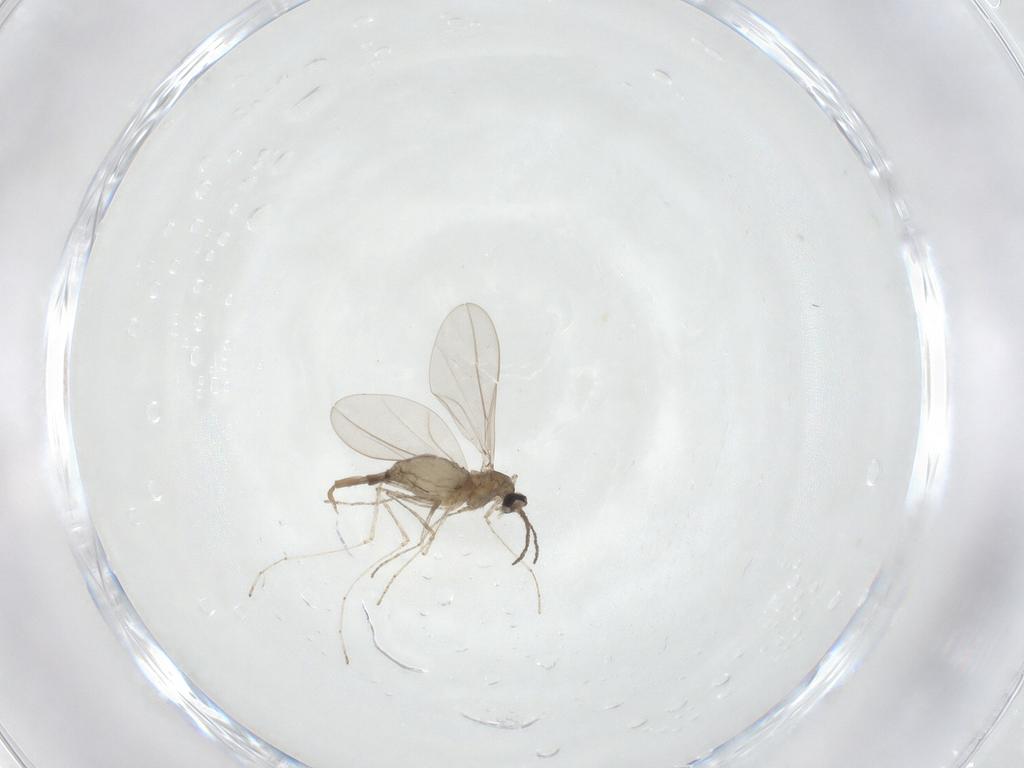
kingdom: Animalia
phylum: Arthropoda
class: Insecta
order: Diptera
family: Cecidomyiidae
